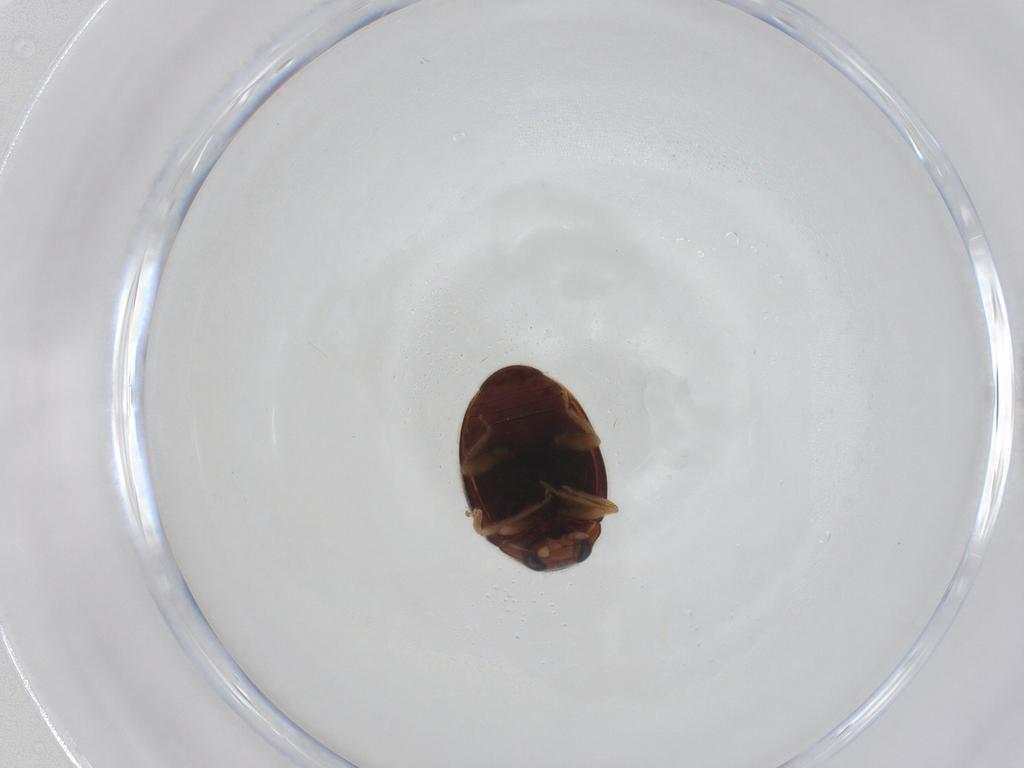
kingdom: Animalia
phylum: Arthropoda
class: Insecta
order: Coleoptera
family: Coccinellidae
